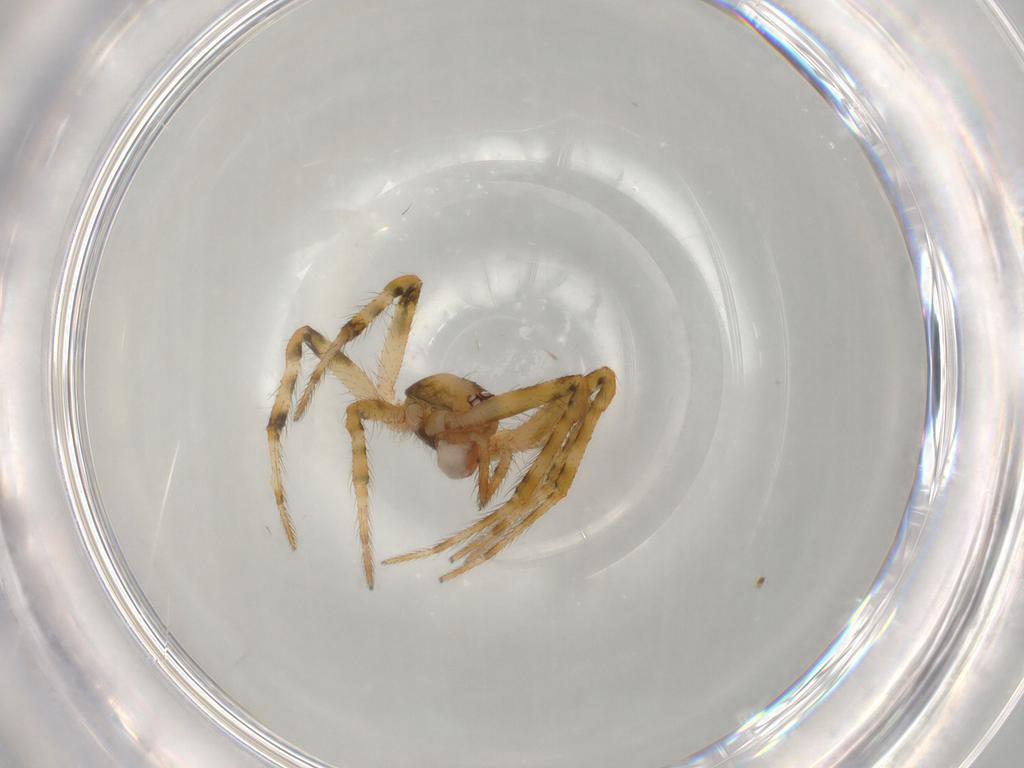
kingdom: Animalia
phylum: Arthropoda
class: Arachnida
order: Araneae
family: Theridiidae
